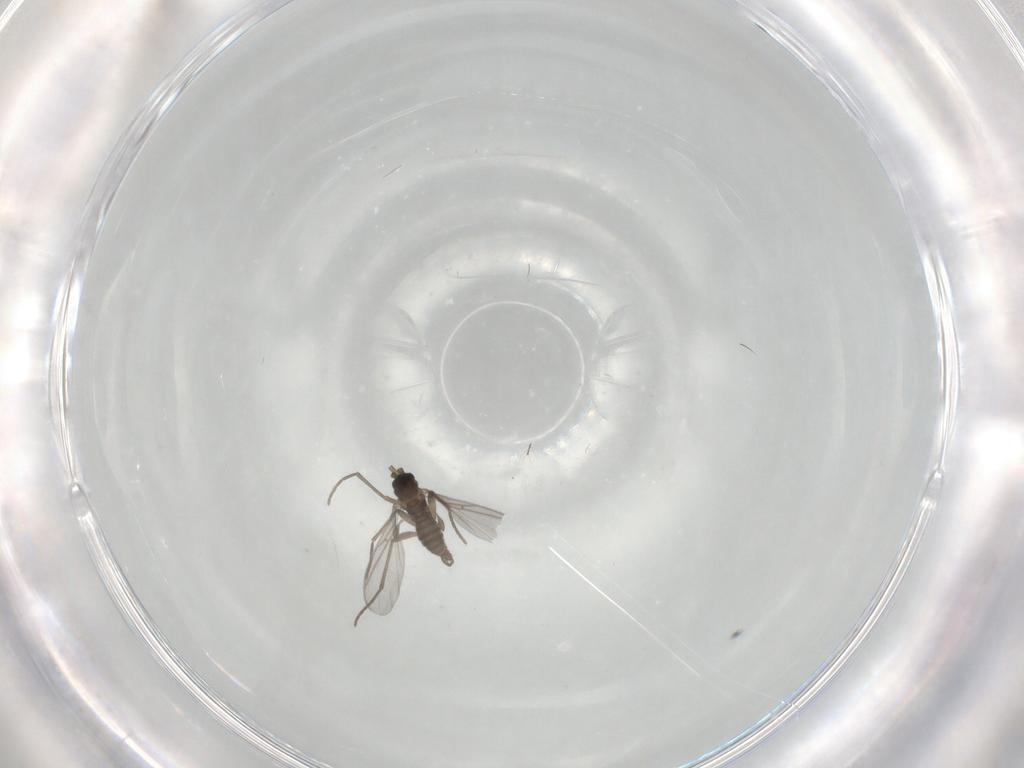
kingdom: Animalia
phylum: Arthropoda
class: Insecta
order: Diptera
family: Limoniidae
